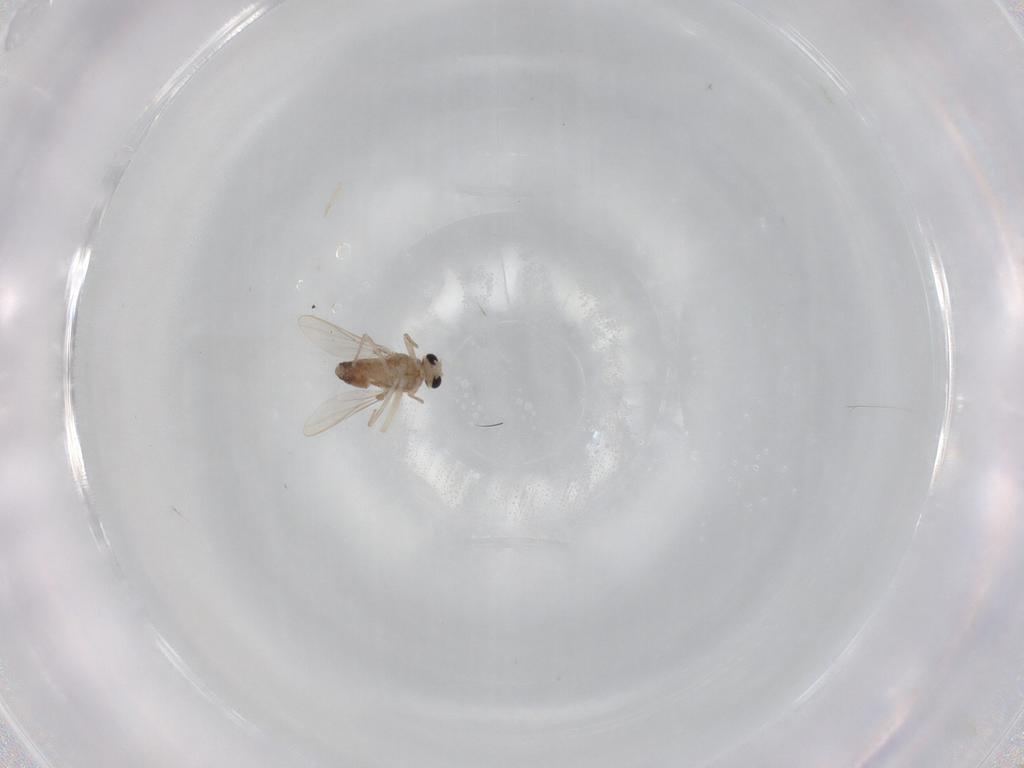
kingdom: Animalia
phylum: Arthropoda
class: Insecta
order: Diptera
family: Chironomidae
